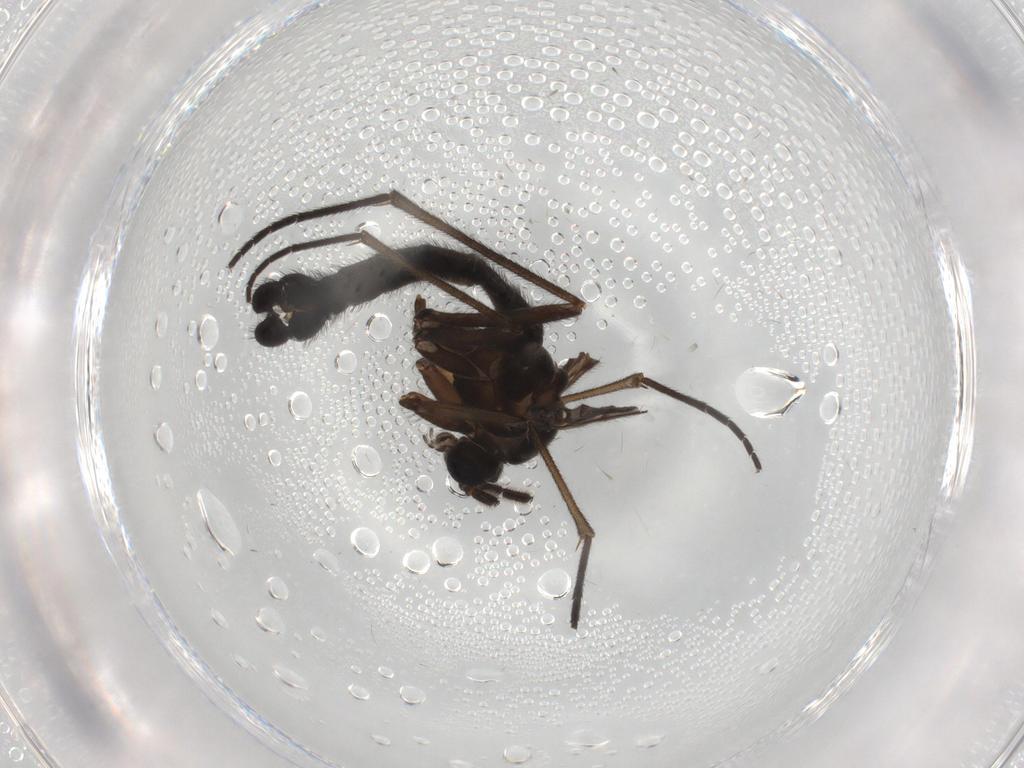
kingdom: Animalia
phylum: Arthropoda
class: Insecta
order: Diptera
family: Sciaridae
